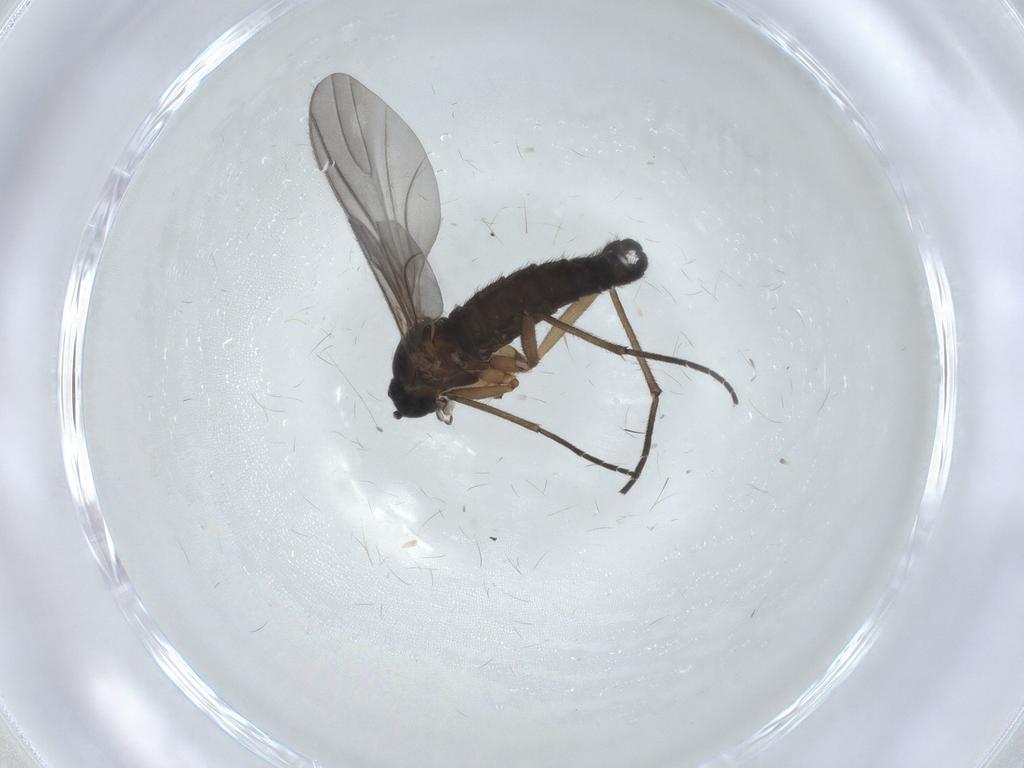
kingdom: Animalia
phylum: Arthropoda
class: Insecta
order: Diptera
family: Sciaridae
